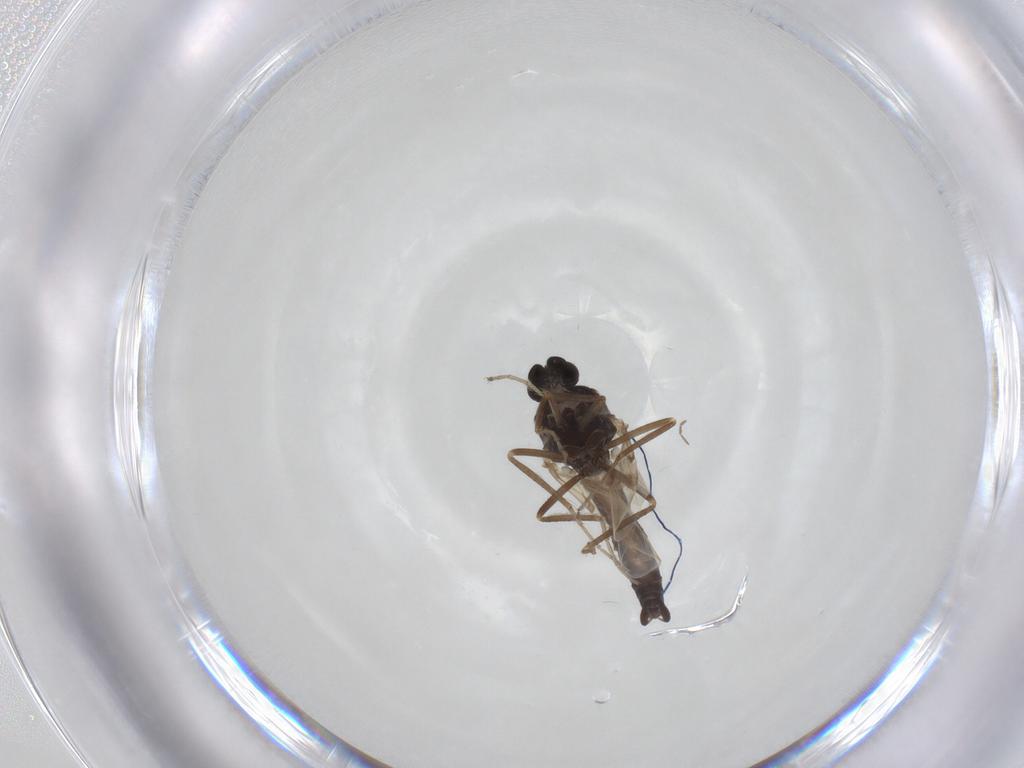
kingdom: Animalia
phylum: Arthropoda
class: Insecta
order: Diptera
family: Ceratopogonidae
